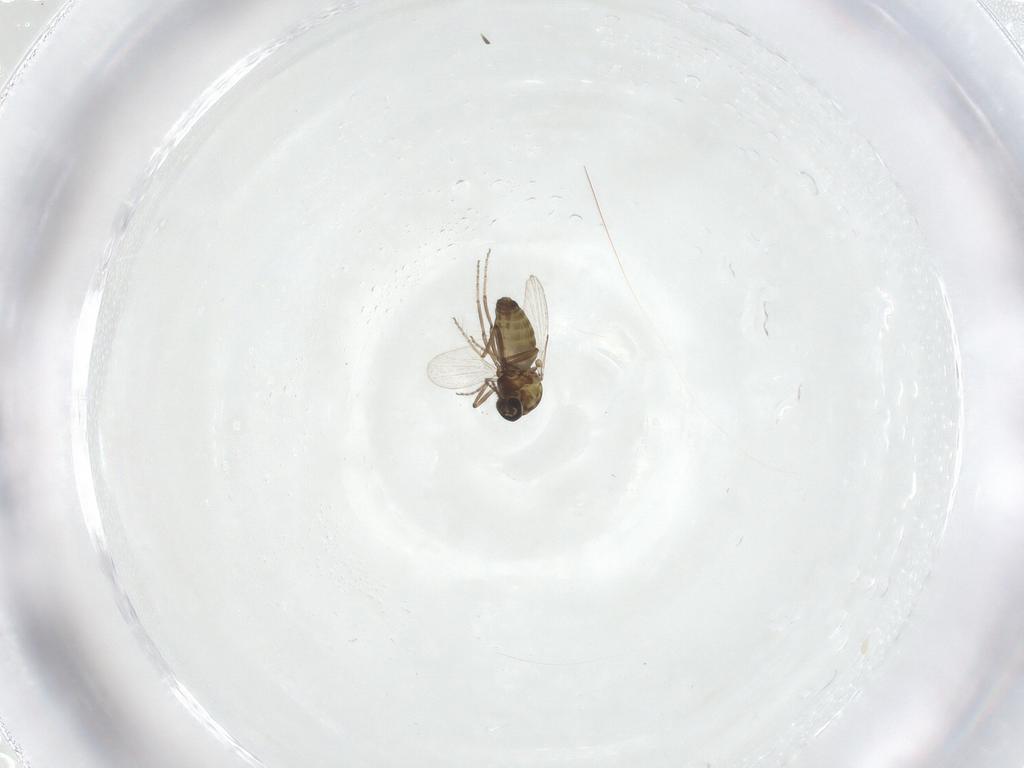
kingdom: Animalia
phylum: Arthropoda
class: Insecta
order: Diptera
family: Ceratopogonidae
